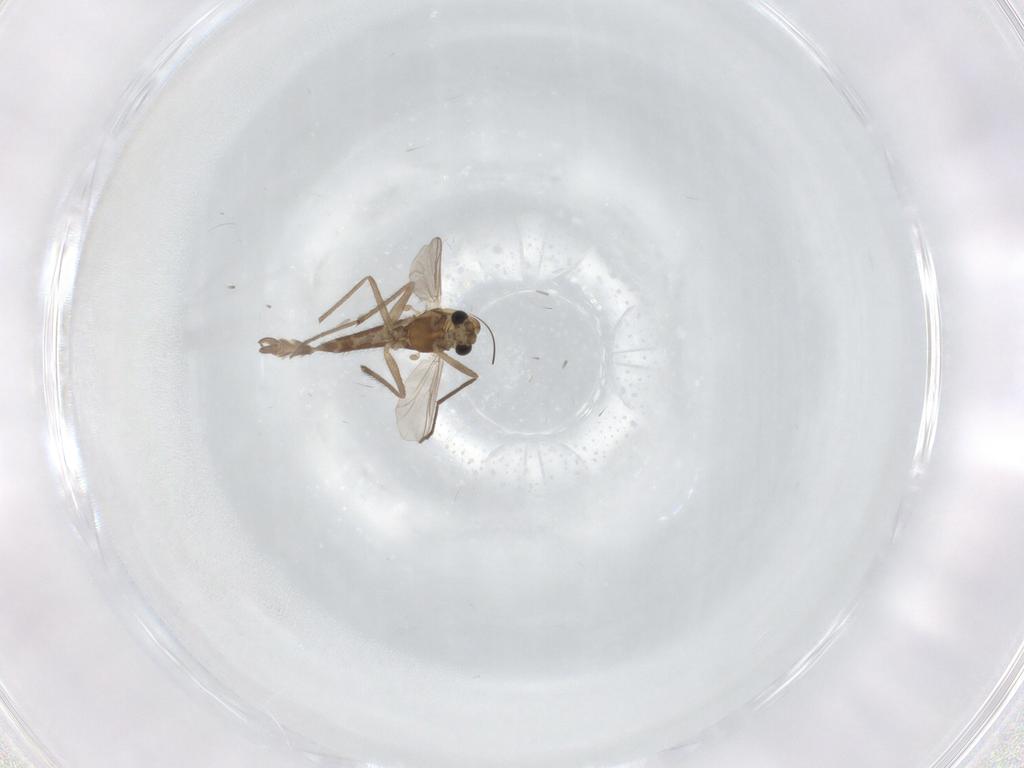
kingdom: Animalia
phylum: Arthropoda
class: Insecta
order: Diptera
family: Chironomidae
